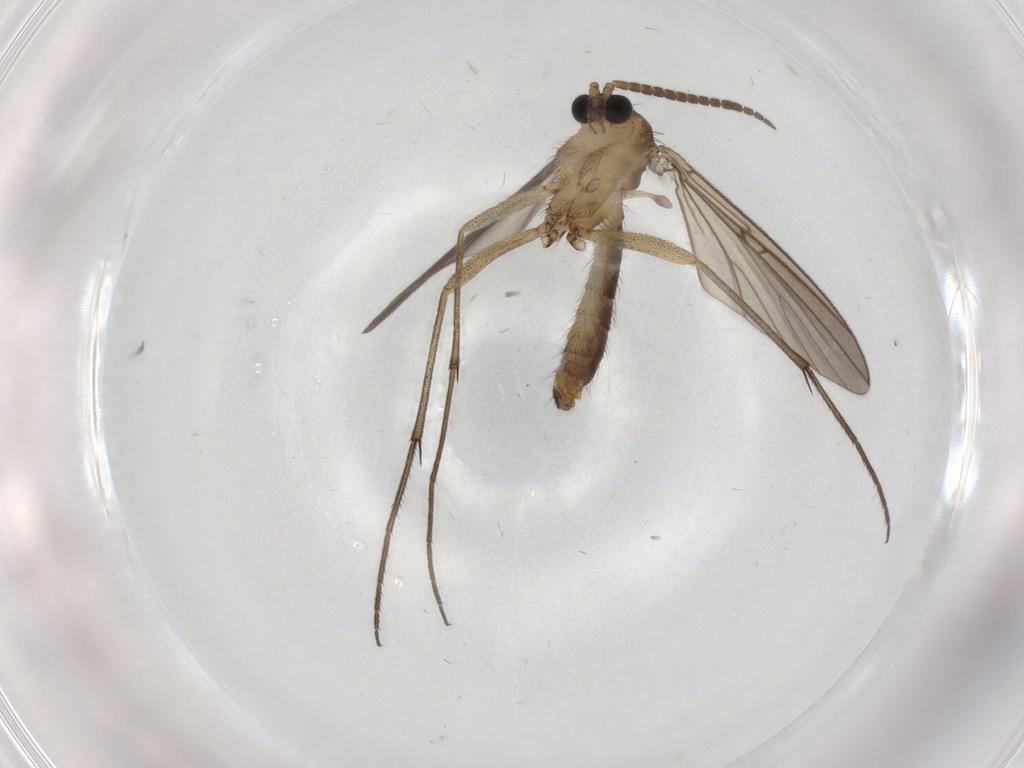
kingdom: Animalia
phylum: Arthropoda
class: Insecta
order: Diptera
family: Mycetophilidae
